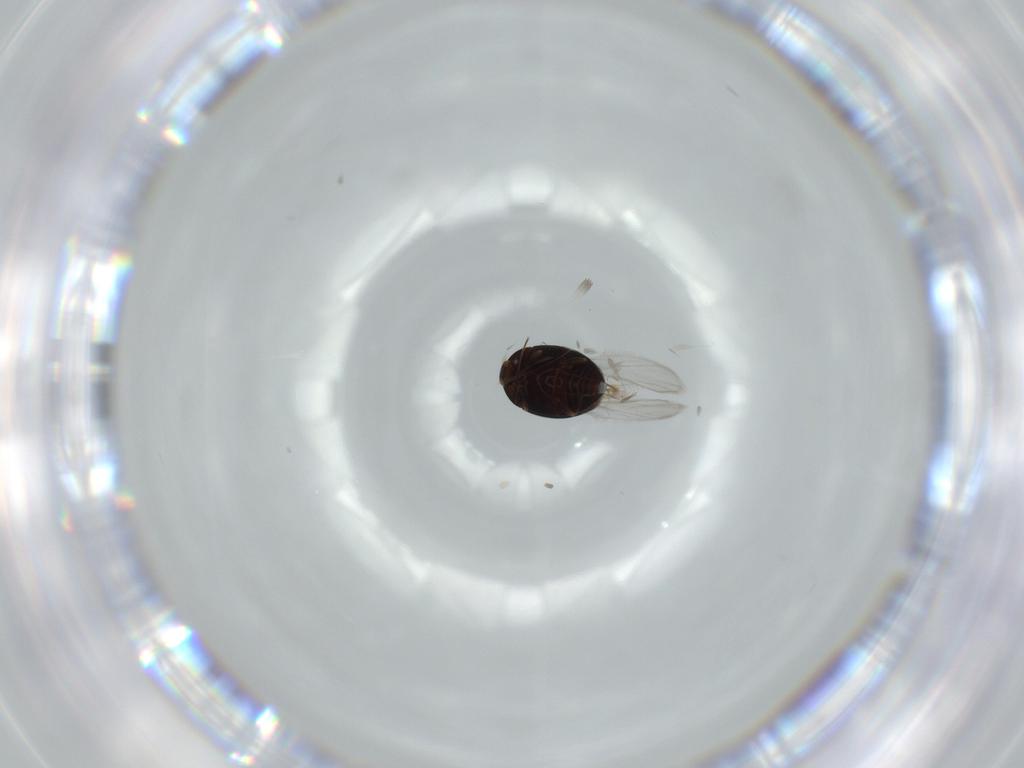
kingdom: Animalia
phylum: Arthropoda
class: Insecta
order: Coleoptera
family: Corylophidae
